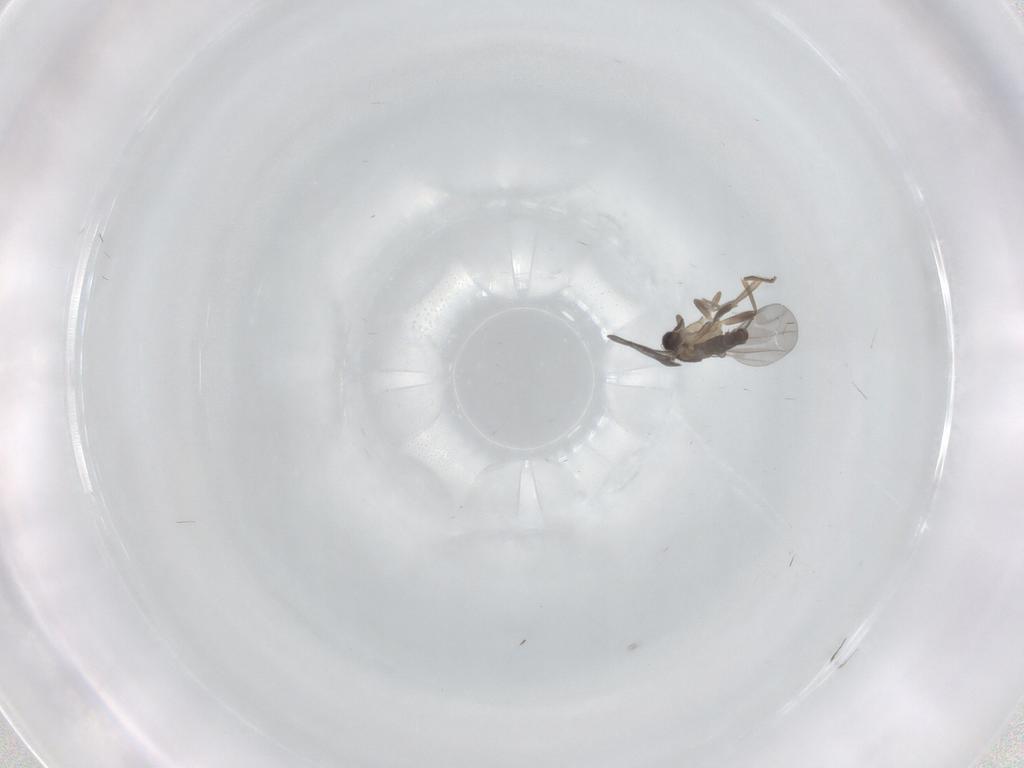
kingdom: Animalia
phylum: Arthropoda
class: Insecta
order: Diptera
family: Cecidomyiidae
